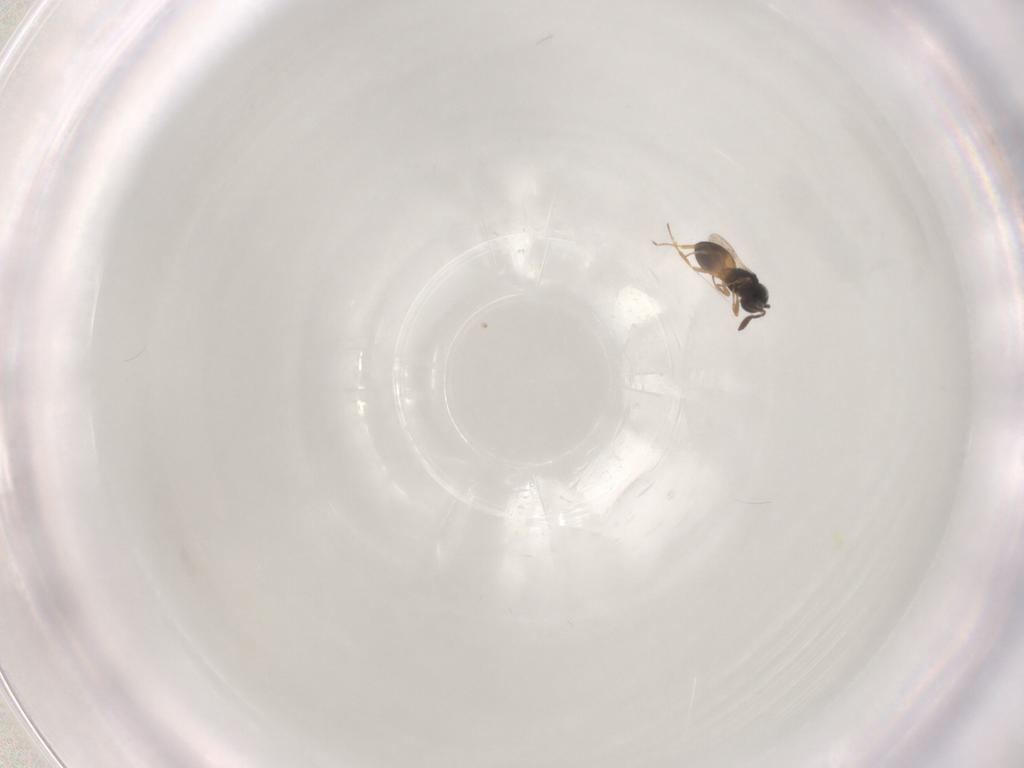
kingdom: Animalia
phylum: Arthropoda
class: Insecta
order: Hymenoptera
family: Scelionidae
